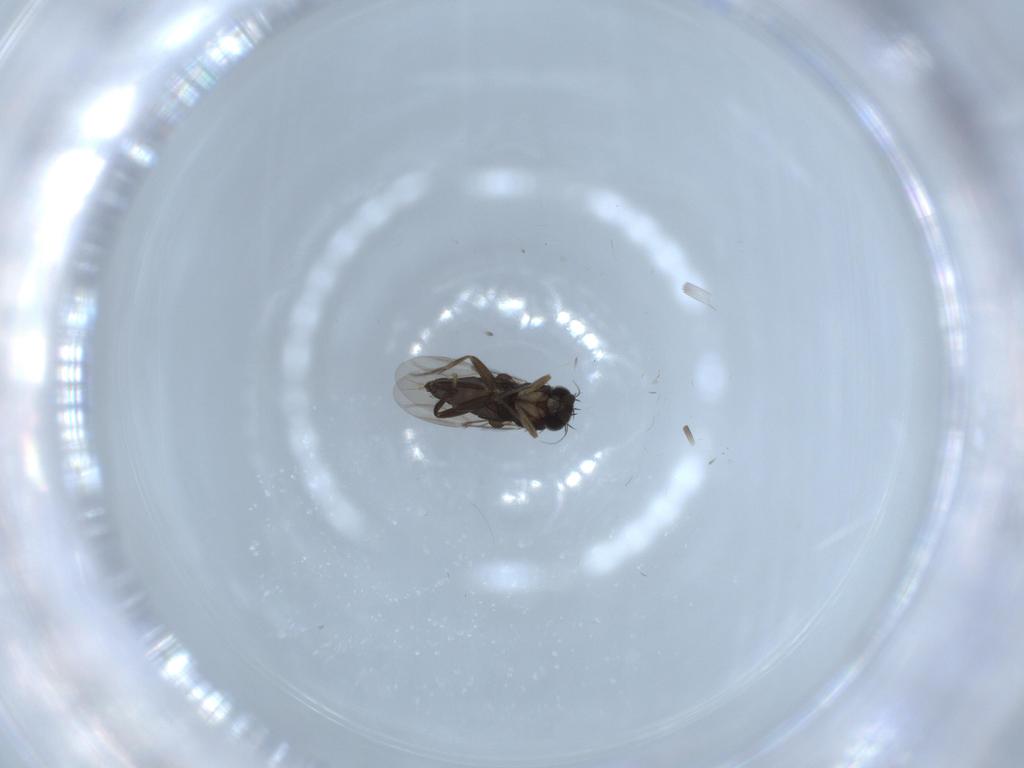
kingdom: Animalia
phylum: Arthropoda
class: Insecta
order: Diptera
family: Phoridae
